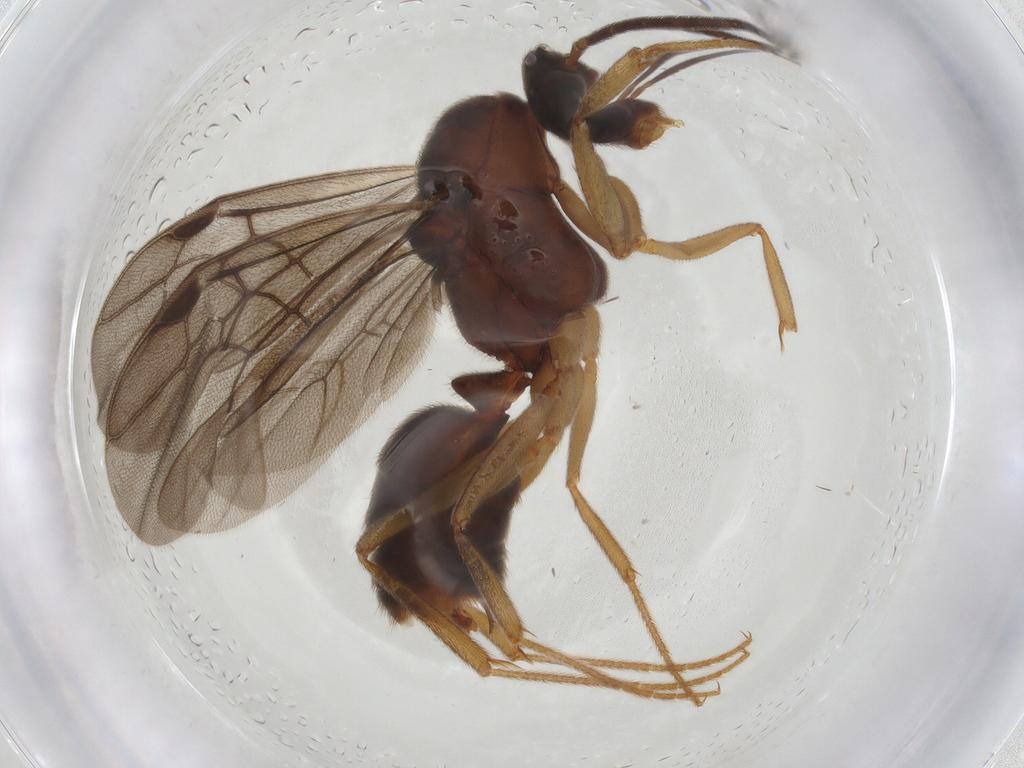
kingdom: Animalia
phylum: Arthropoda
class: Insecta
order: Hymenoptera
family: Formicidae
